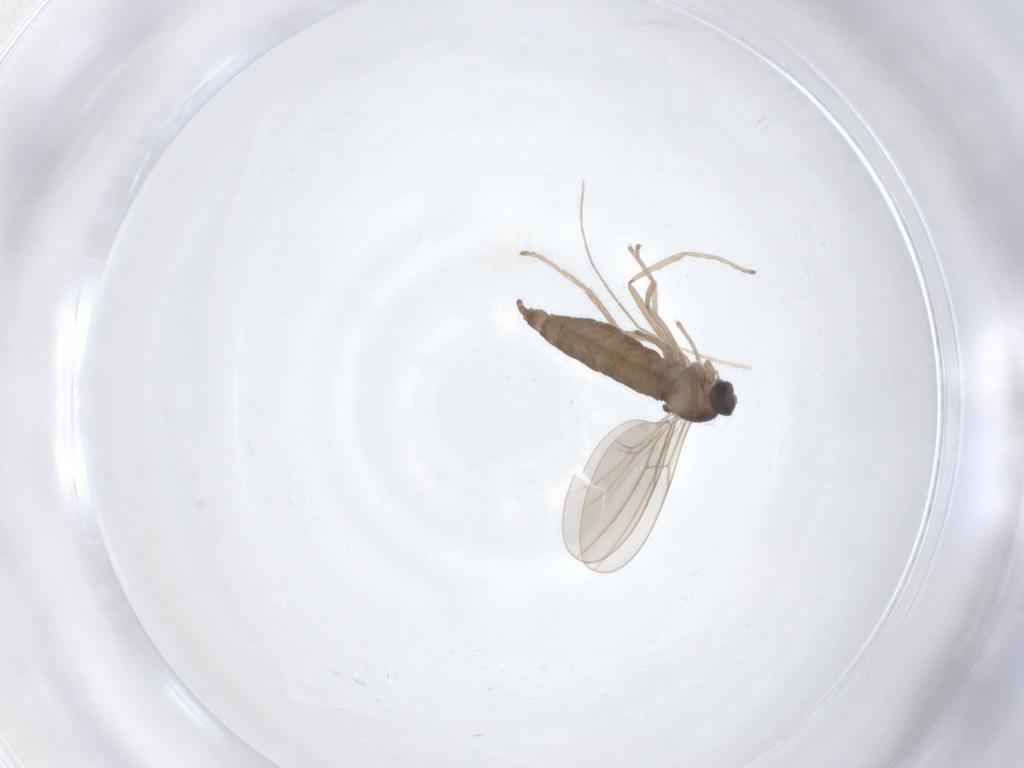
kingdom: Animalia
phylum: Arthropoda
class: Insecta
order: Diptera
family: Cecidomyiidae
